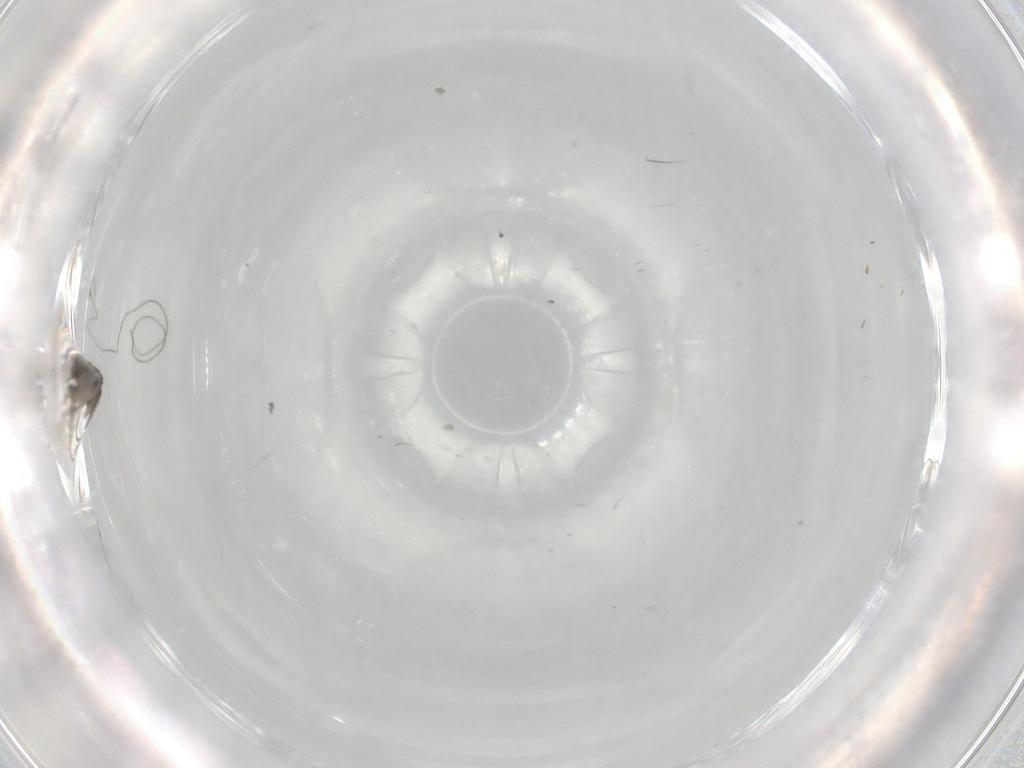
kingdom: Animalia
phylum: Arthropoda
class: Insecta
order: Diptera
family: Phoridae
